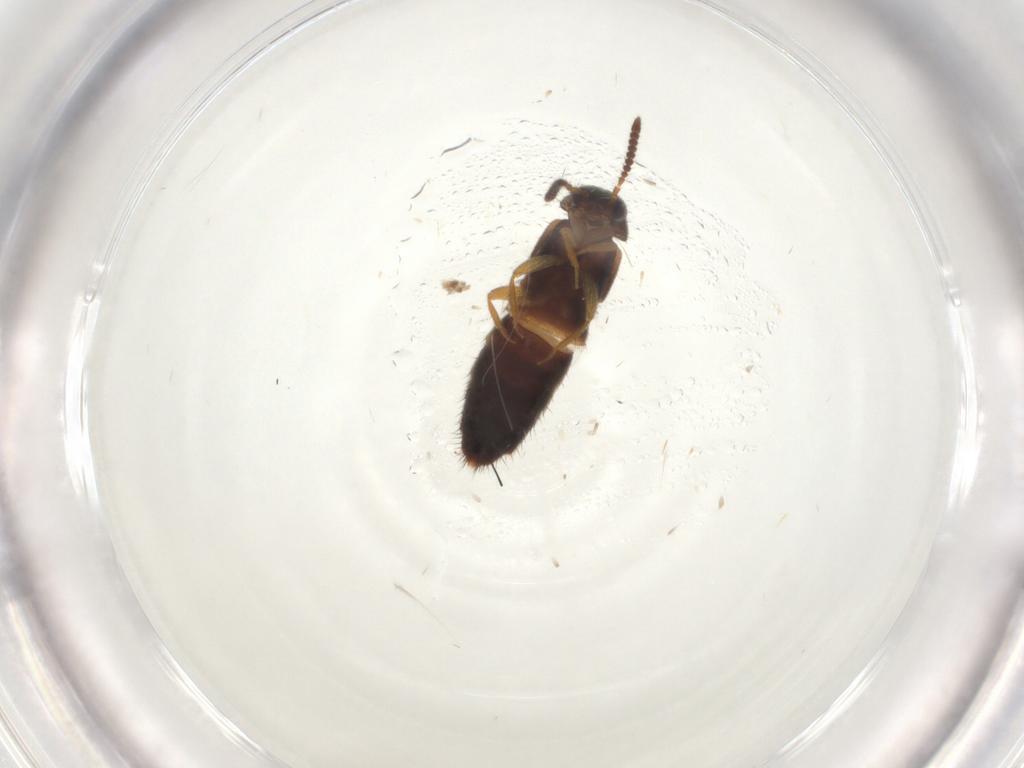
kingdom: Animalia
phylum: Arthropoda
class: Insecta
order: Coleoptera
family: Staphylinidae
